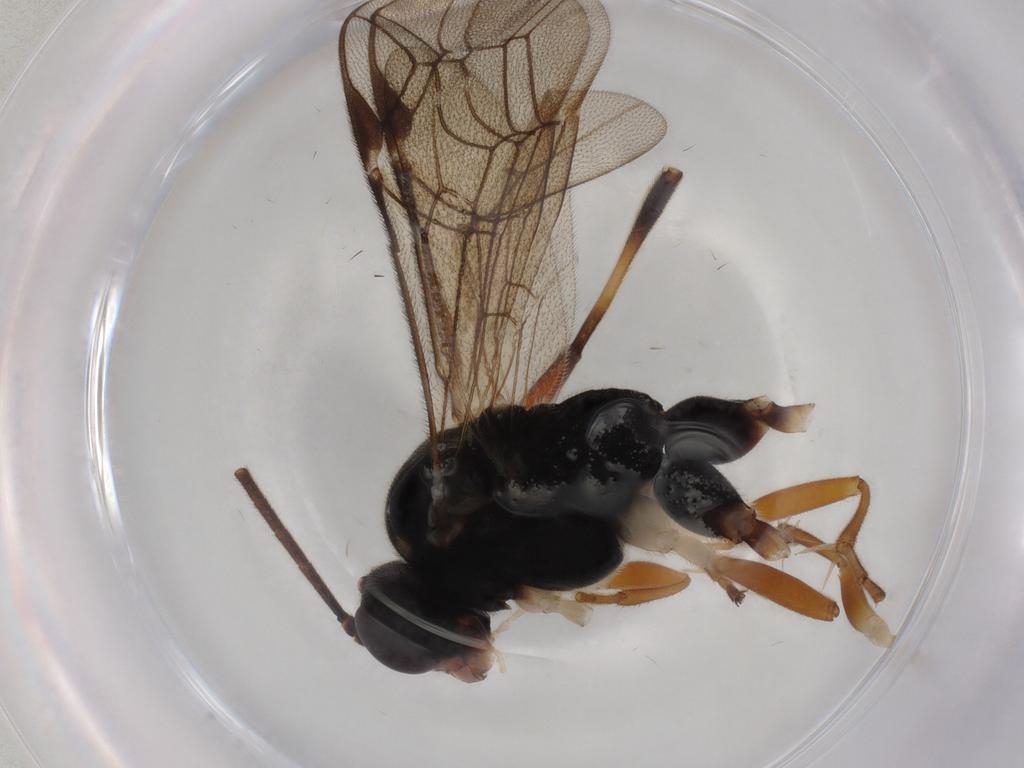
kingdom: Animalia
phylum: Arthropoda
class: Insecta
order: Hymenoptera
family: Ichneumonidae
